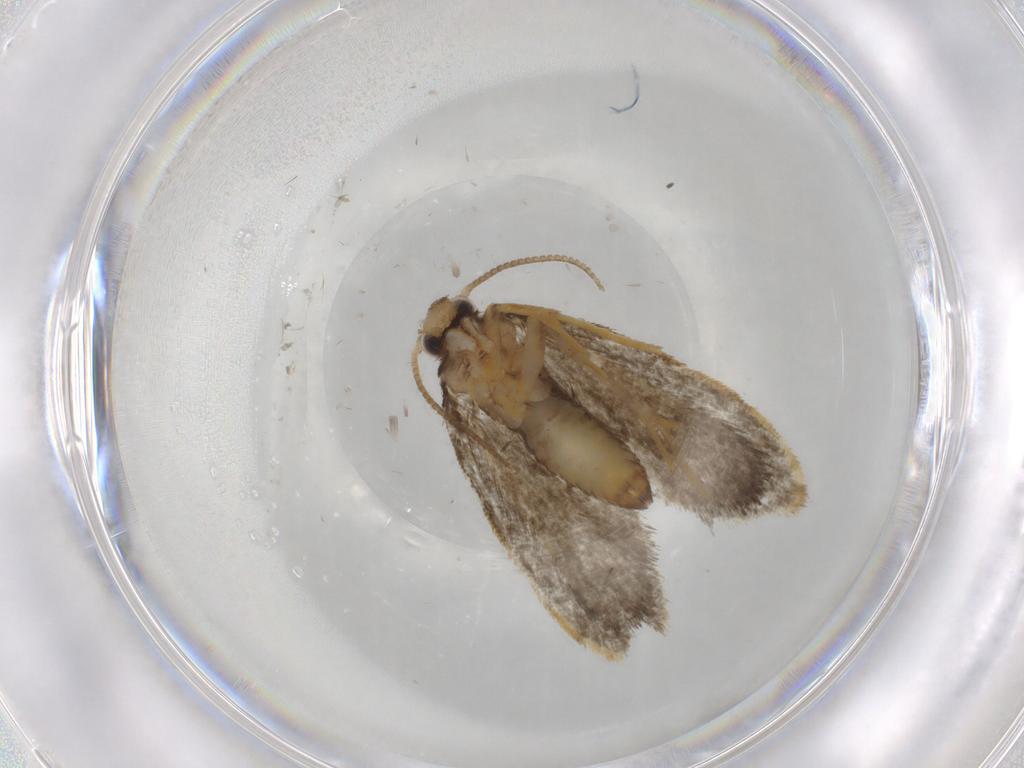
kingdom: Animalia
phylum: Arthropoda
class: Insecta
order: Lepidoptera
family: Psychidae
